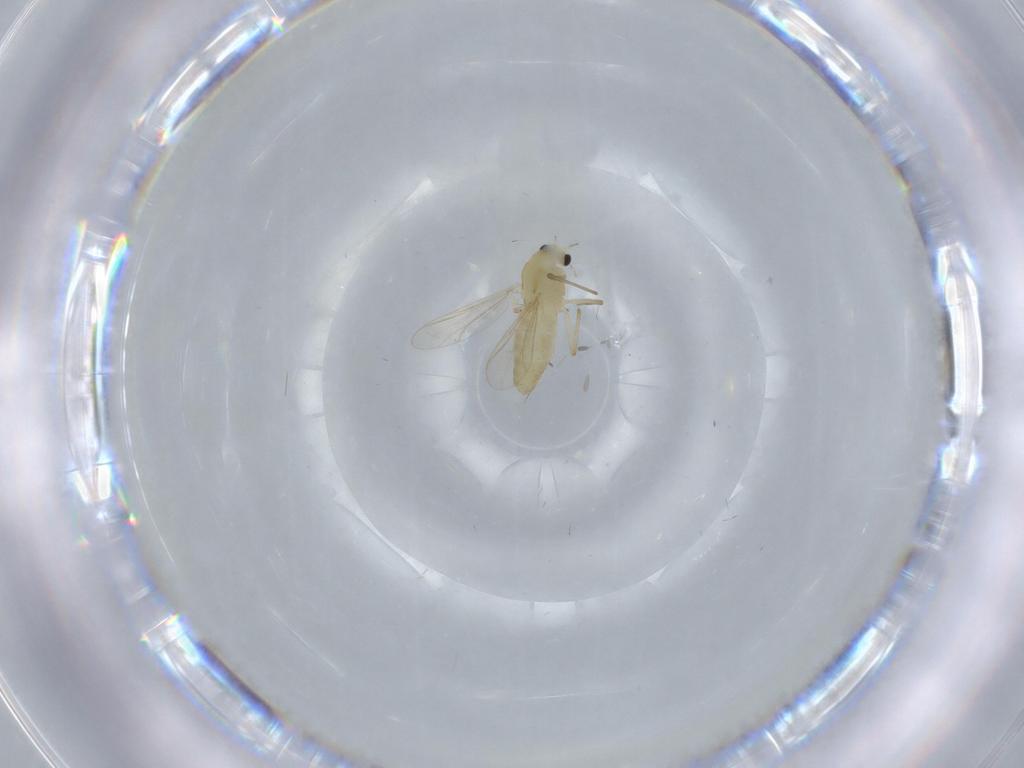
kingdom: Animalia
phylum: Arthropoda
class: Insecta
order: Diptera
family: Chironomidae
